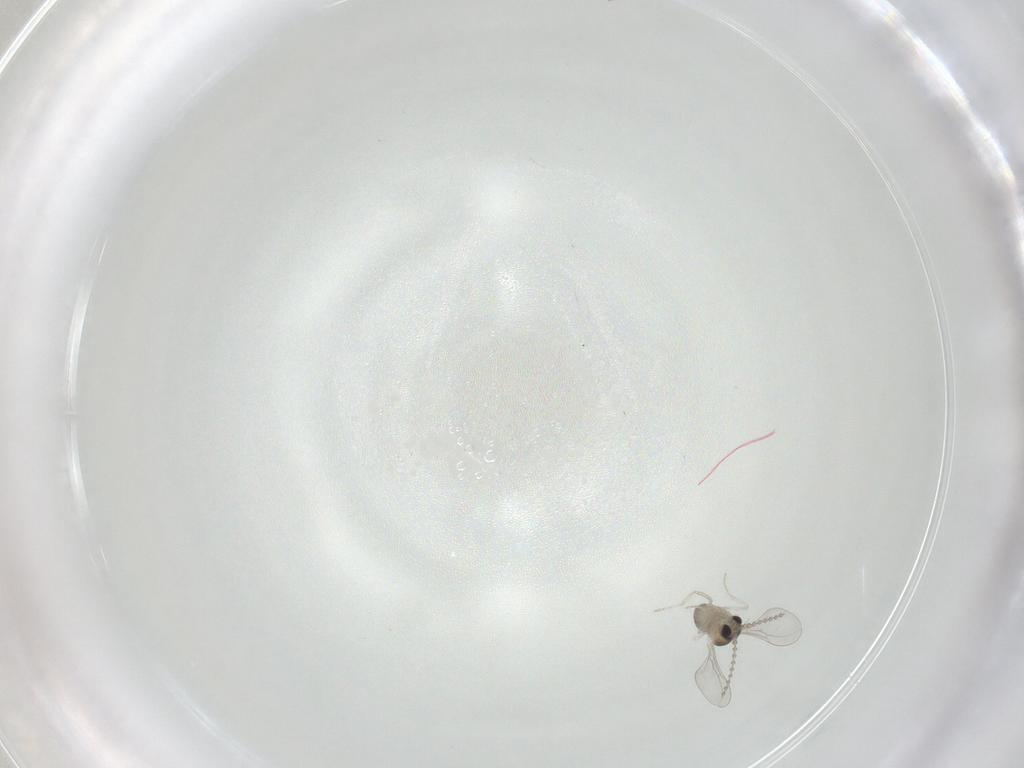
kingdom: Animalia
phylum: Arthropoda
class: Insecta
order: Diptera
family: Cecidomyiidae
